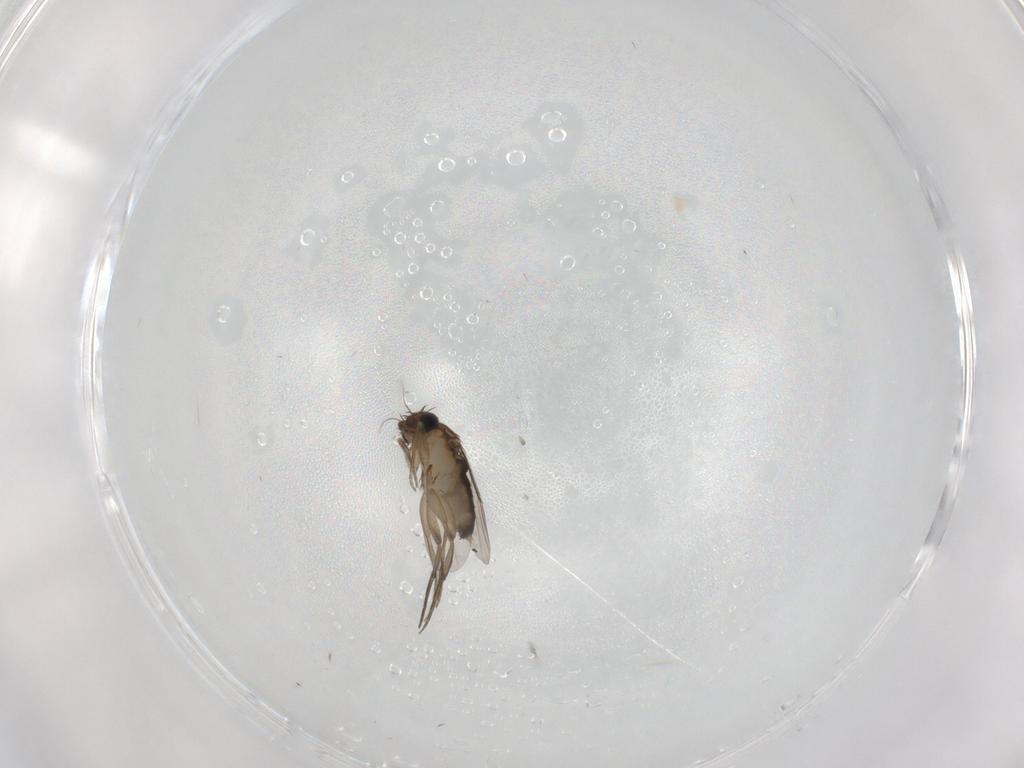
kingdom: Animalia
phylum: Arthropoda
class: Insecta
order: Diptera
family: Phoridae
